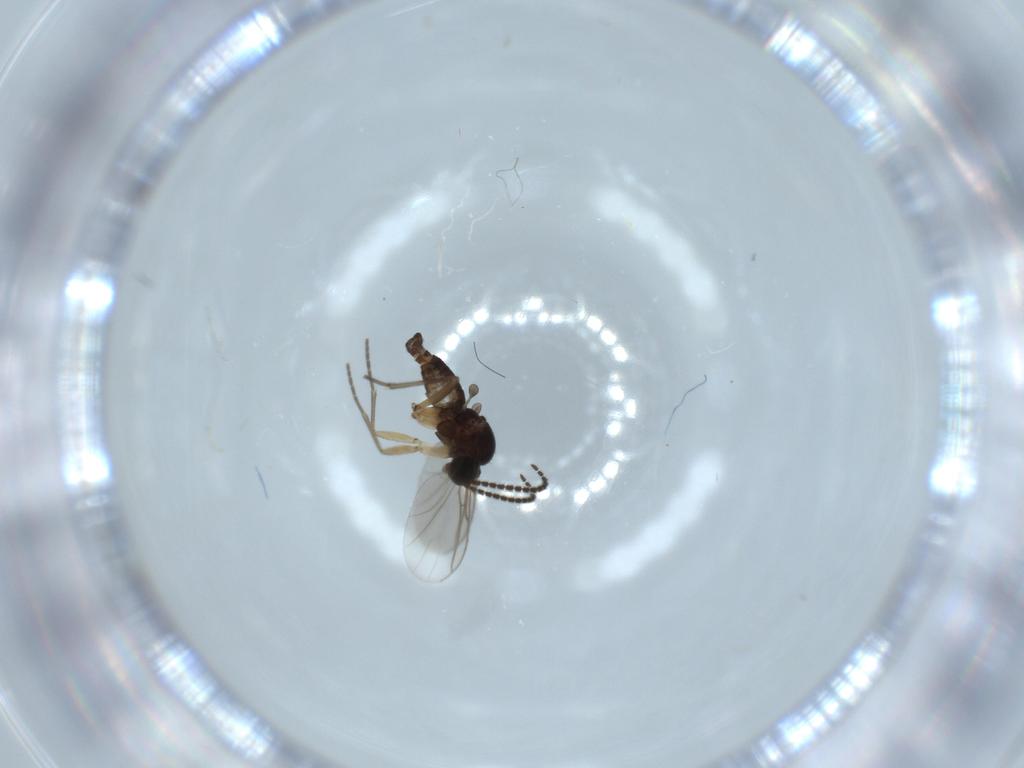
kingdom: Animalia
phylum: Arthropoda
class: Insecta
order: Diptera
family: Sciaridae
